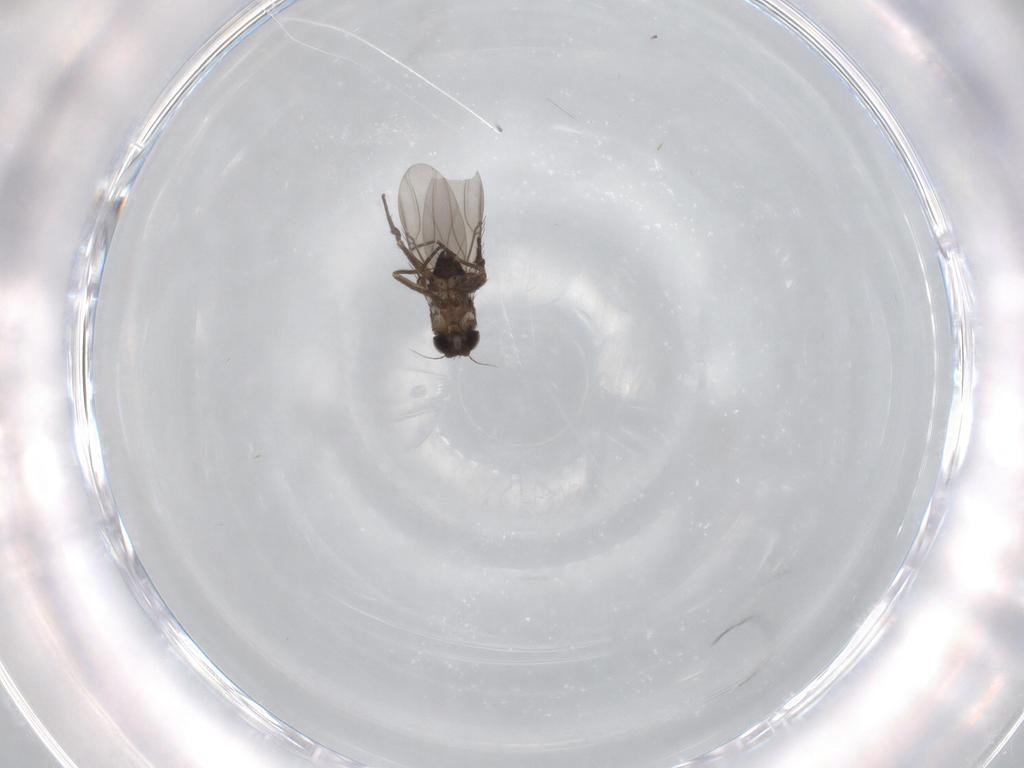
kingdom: Animalia
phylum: Arthropoda
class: Insecta
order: Diptera
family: Phoridae
